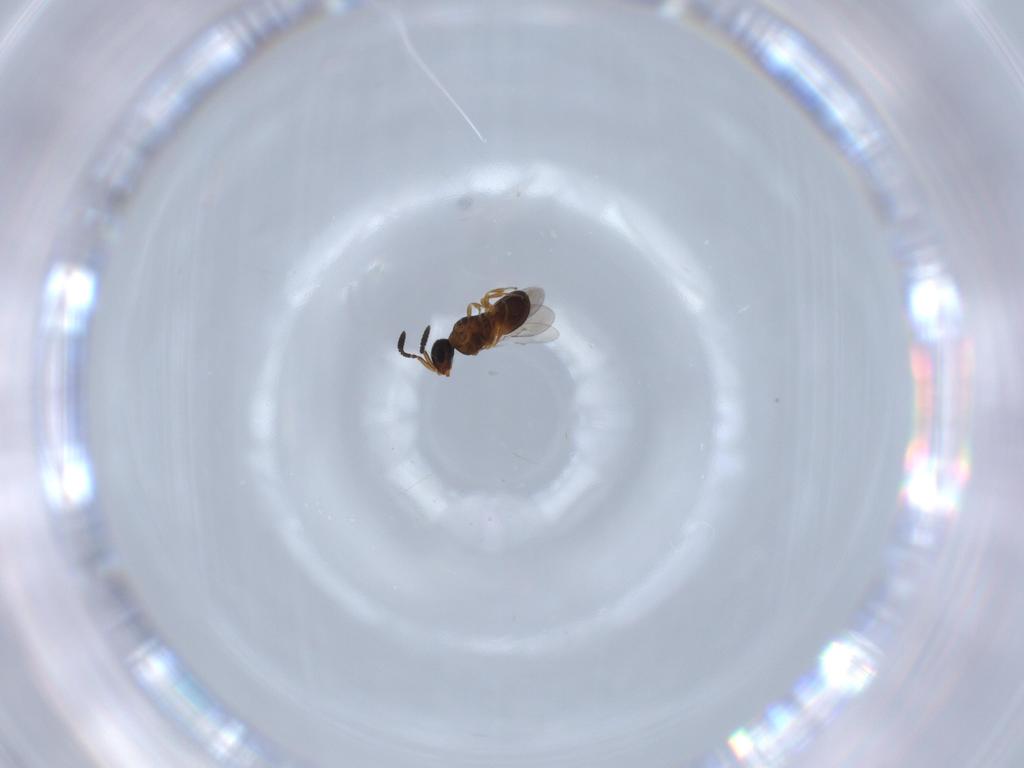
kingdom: Animalia
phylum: Arthropoda
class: Insecta
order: Hymenoptera
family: Scelionidae
